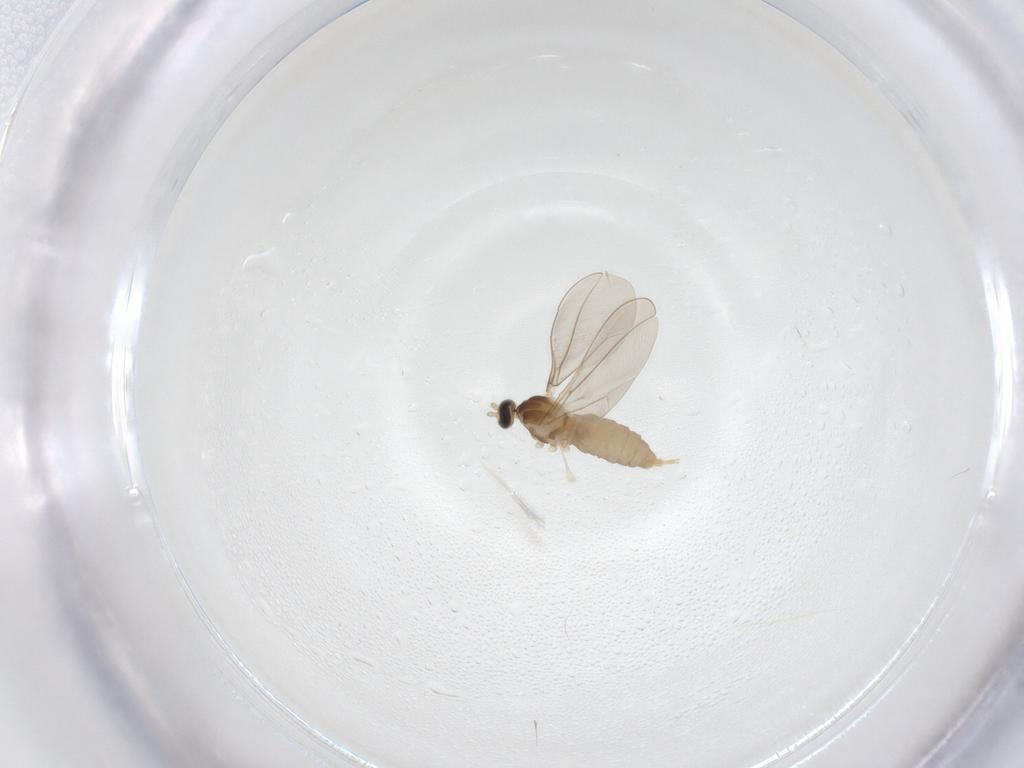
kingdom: Animalia
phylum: Arthropoda
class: Insecta
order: Diptera
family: Cecidomyiidae
